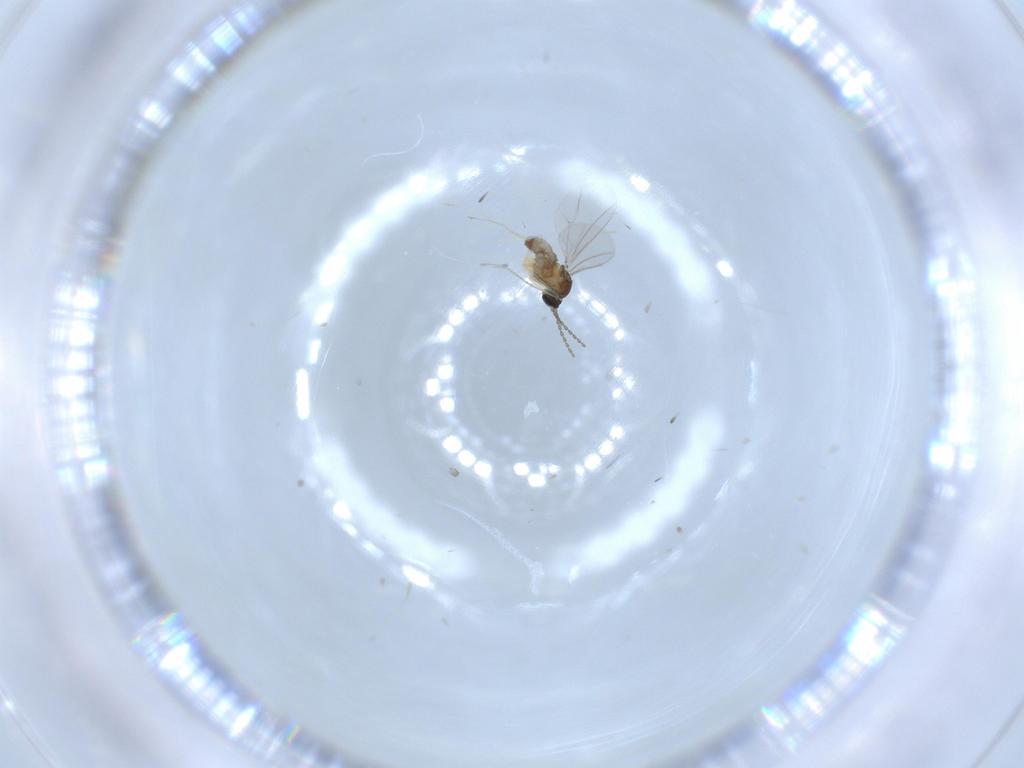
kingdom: Animalia
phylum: Arthropoda
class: Insecta
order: Diptera
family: Cecidomyiidae
